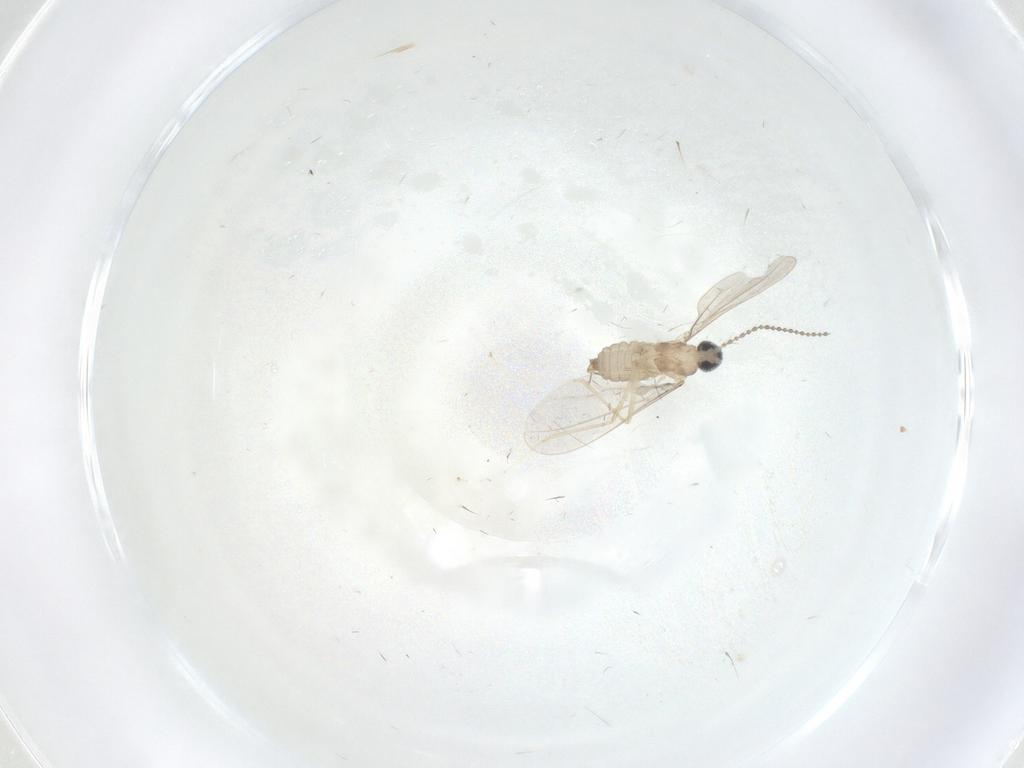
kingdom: Animalia
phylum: Arthropoda
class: Insecta
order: Diptera
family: Cecidomyiidae
